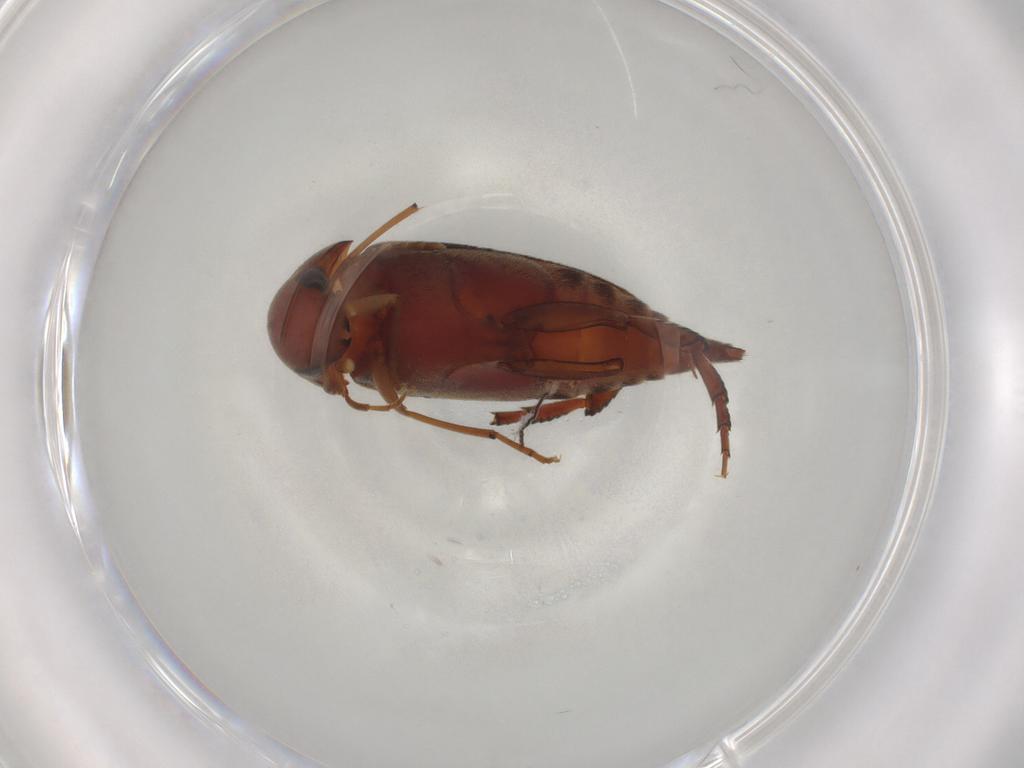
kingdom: Animalia
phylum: Arthropoda
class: Insecta
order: Coleoptera
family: Mordellidae
